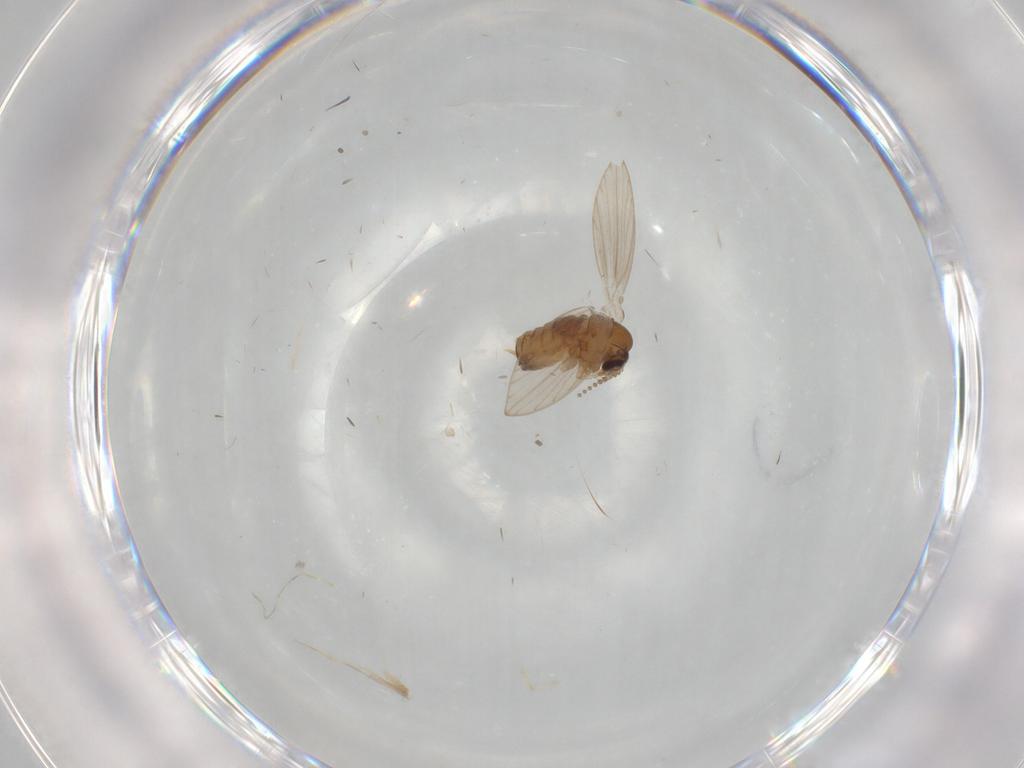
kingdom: Animalia
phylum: Arthropoda
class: Insecta
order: Diptera
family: Psychodidae
